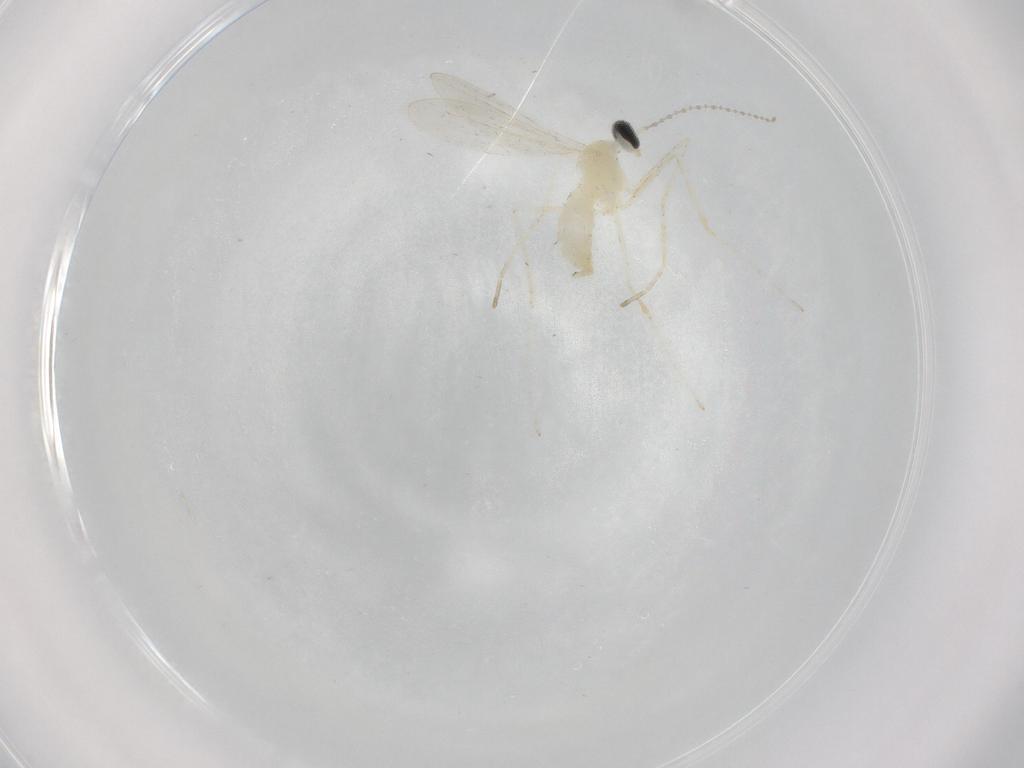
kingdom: Animalia
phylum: Arthropoda
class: Insecta
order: Diptera
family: Cecidomyiidae
